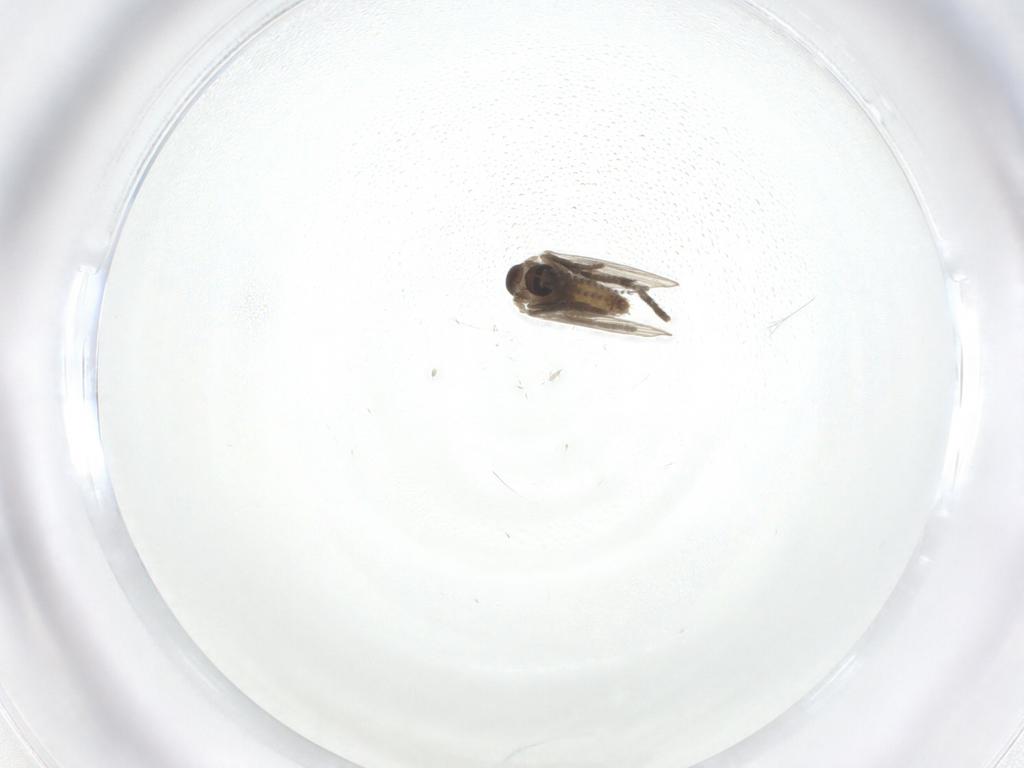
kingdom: Animalia
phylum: Arthropoda
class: Insecta
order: Diptera
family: Psychodidae
